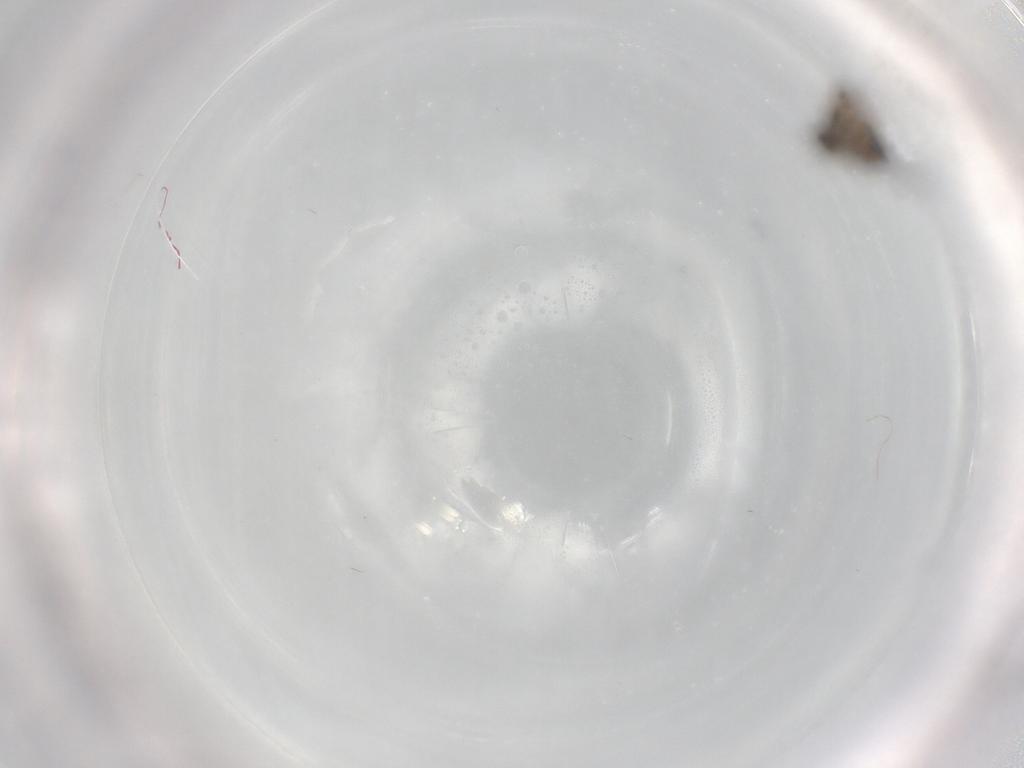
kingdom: Animalia
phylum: Arthropoda
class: Insecta
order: Diptera
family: Cecidomyiidae
